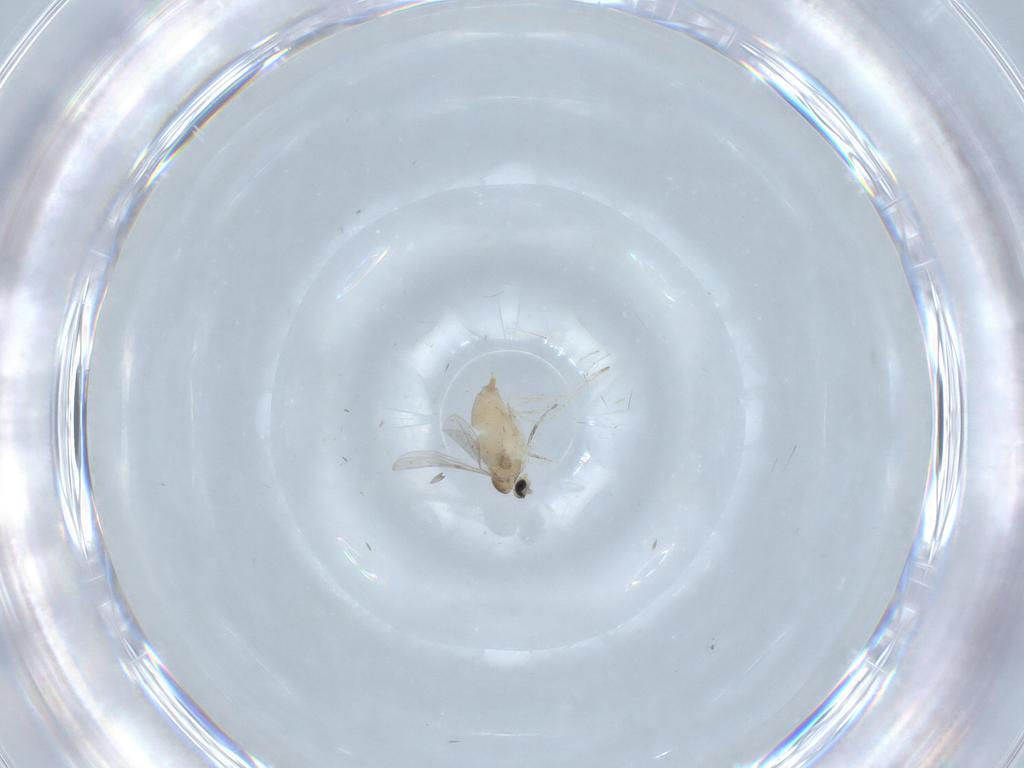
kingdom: Animalia
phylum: Arthropoda
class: Insecta
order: Diptera
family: Cecidomyiidae
